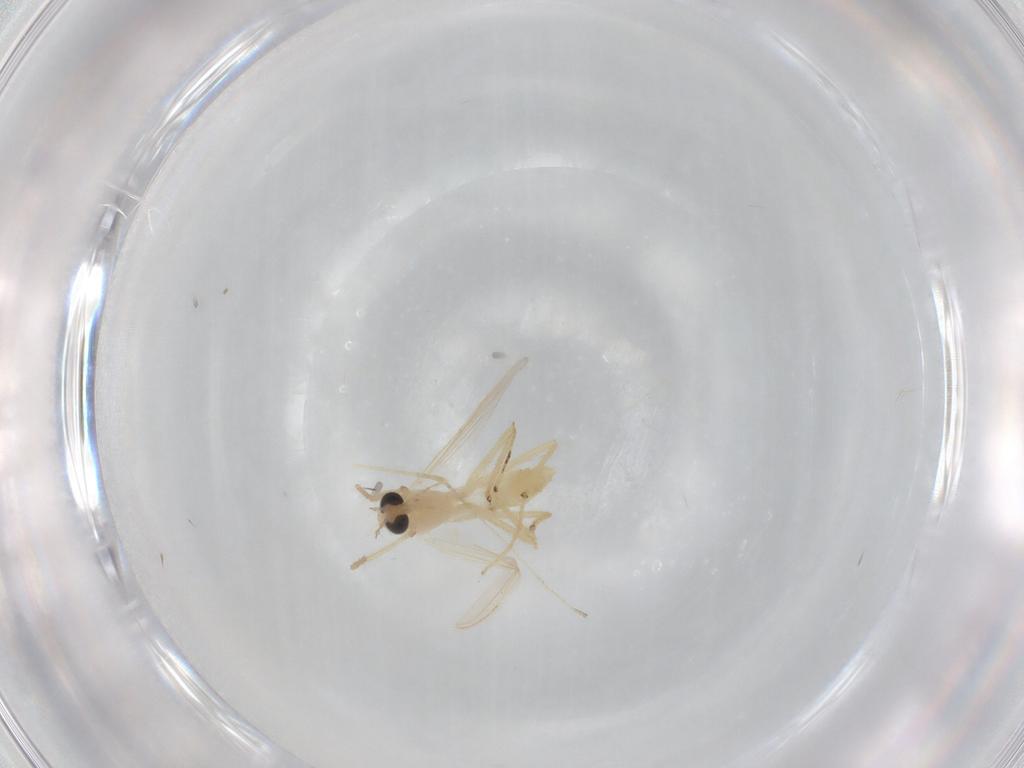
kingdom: Animalia
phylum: Arthropoda
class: Insecta
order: Diptera
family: Chironomidae
